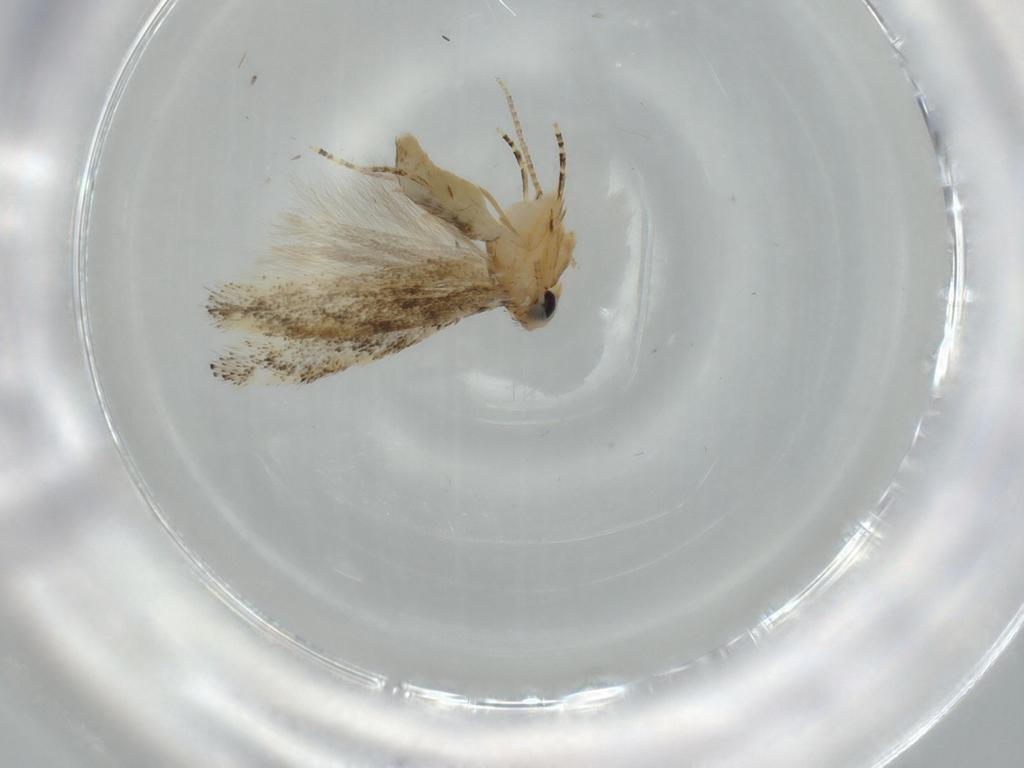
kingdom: Animalia
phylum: Arthropoda
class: Insecta
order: Lepidoptera
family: Bucculatricidae
